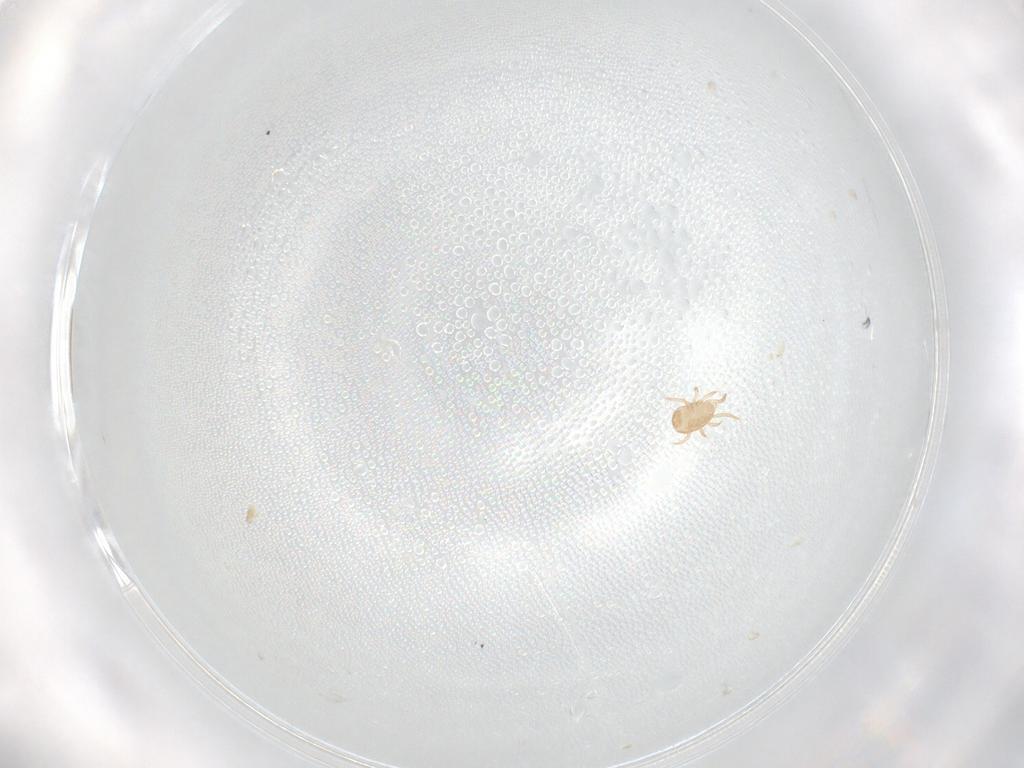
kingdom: Animalia
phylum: Arthropoda
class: Arachnida
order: Mesostigmata
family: Ameroseiidae
